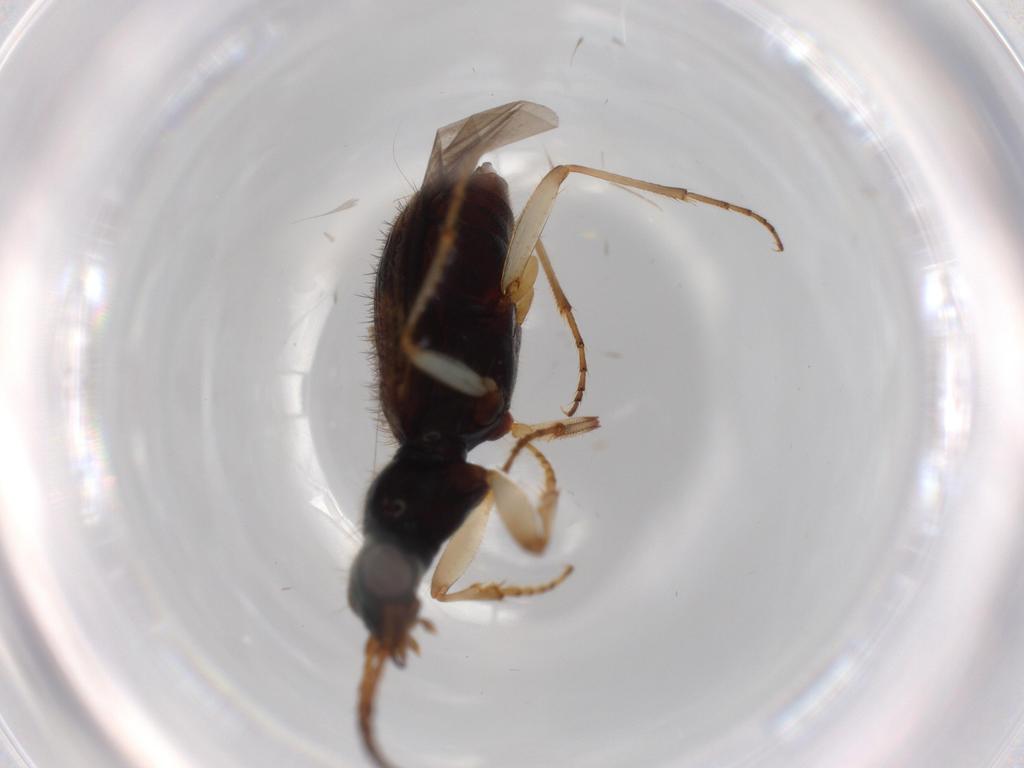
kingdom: Animalia
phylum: Arthropoda
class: Insecta
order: Coleoptera
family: Carabidae
